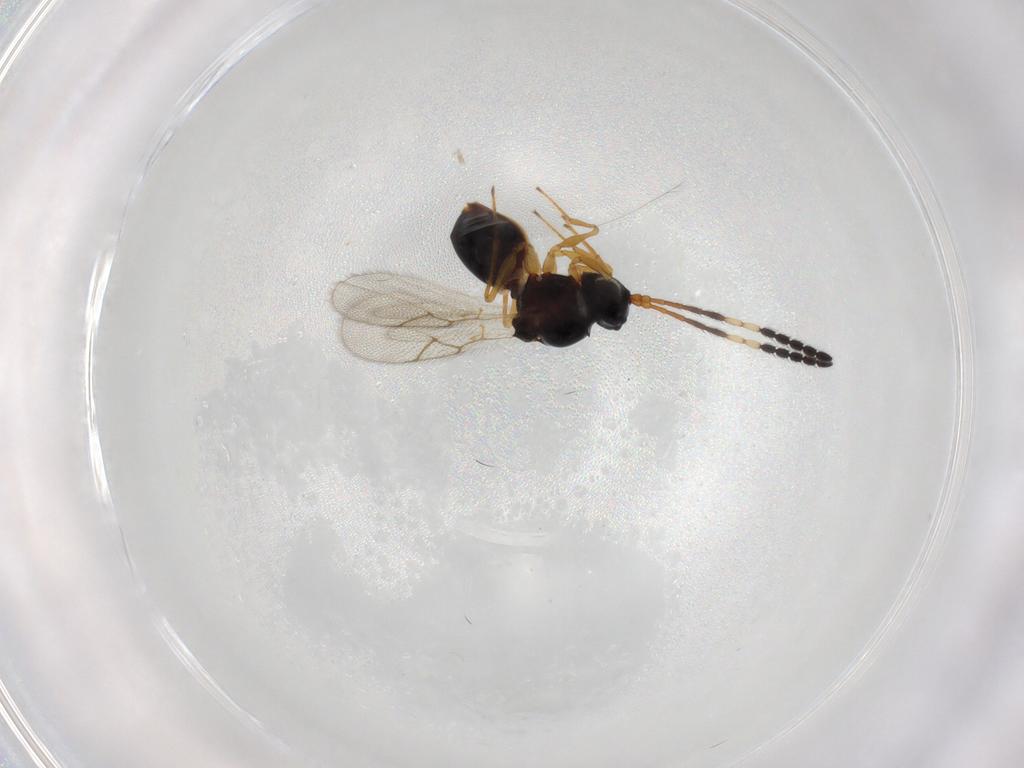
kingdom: Animalia
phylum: Arthropoda
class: Insecta
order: Hymenoptera
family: Figitidae
